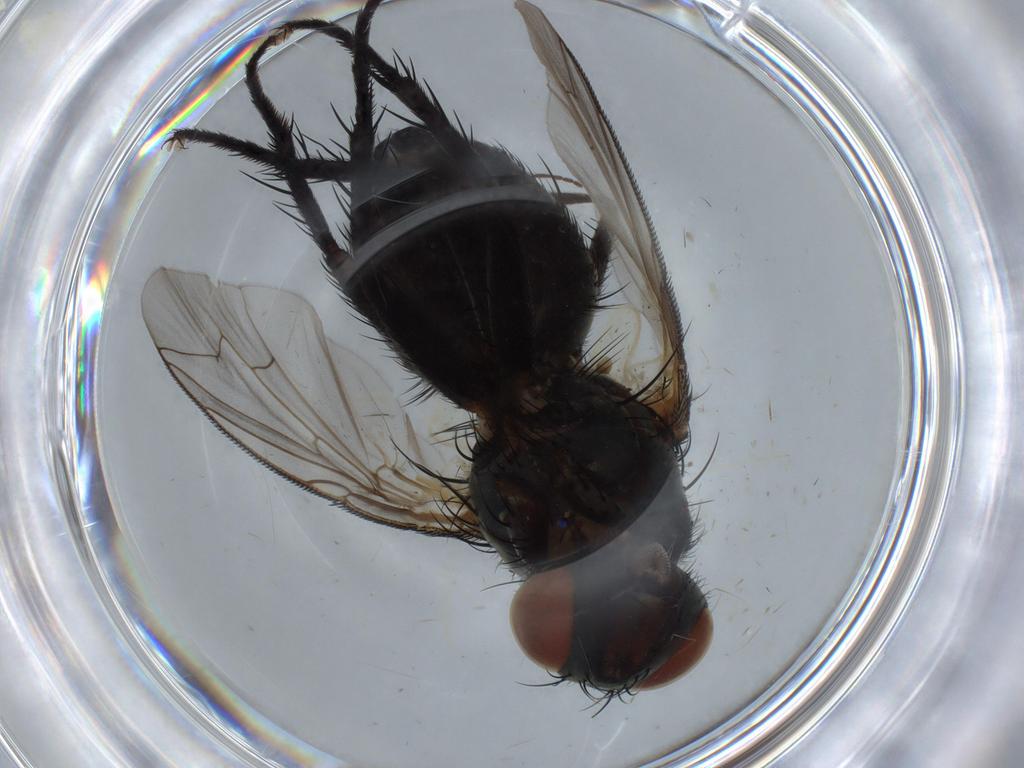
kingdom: Animalia
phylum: Arthropoda
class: Insecta
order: Diptera
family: Sarcophagidae
